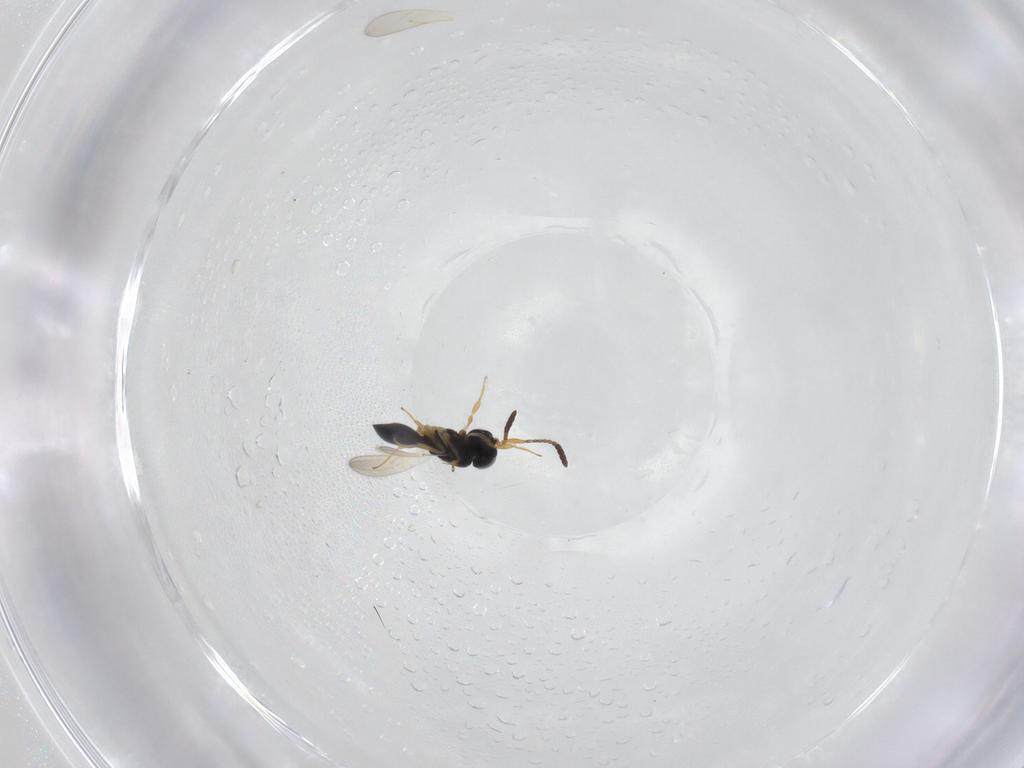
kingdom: Animalia
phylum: Arthropoda
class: Insecta
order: Hymenoptera
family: Scelionidae
